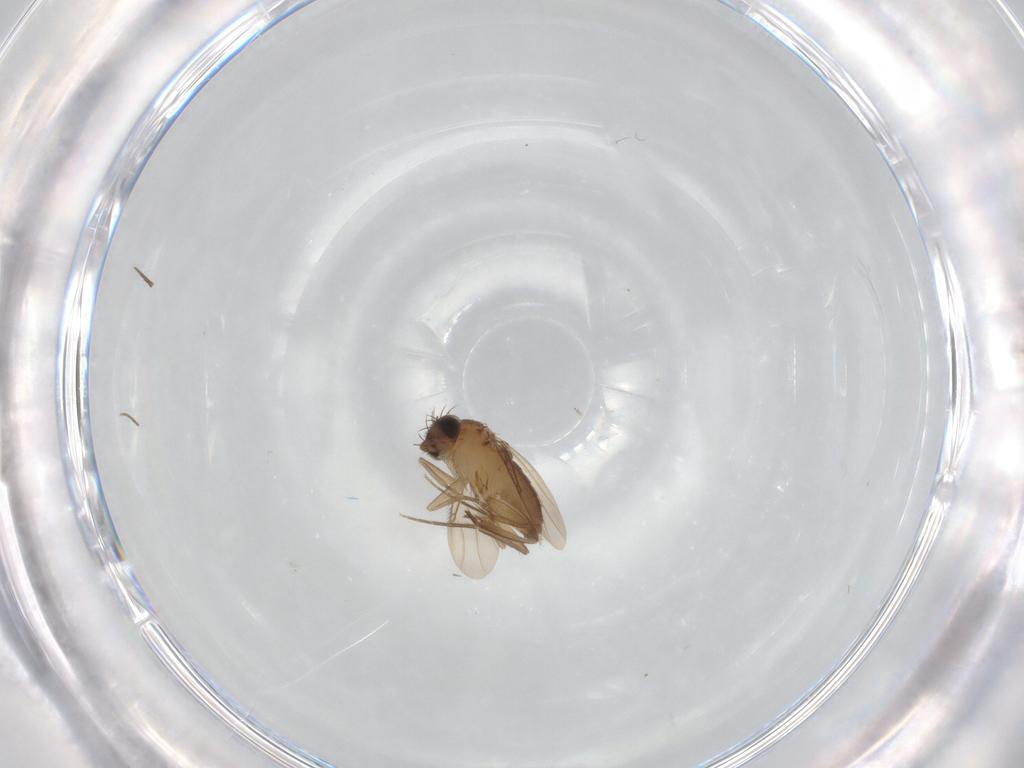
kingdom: Animalia
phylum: Arthropoda
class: Insecta
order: Diptera
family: Phoridae
